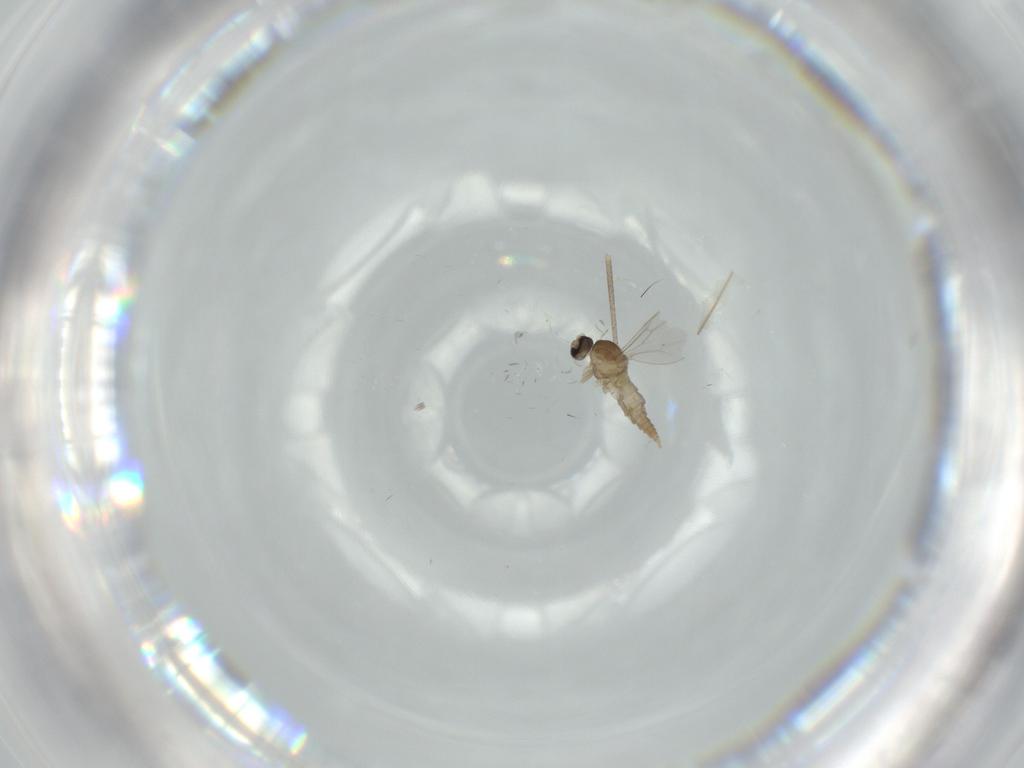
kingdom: Animalia
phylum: Arthropoda
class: Insecta
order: Diptera
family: Cecidomyiidae
